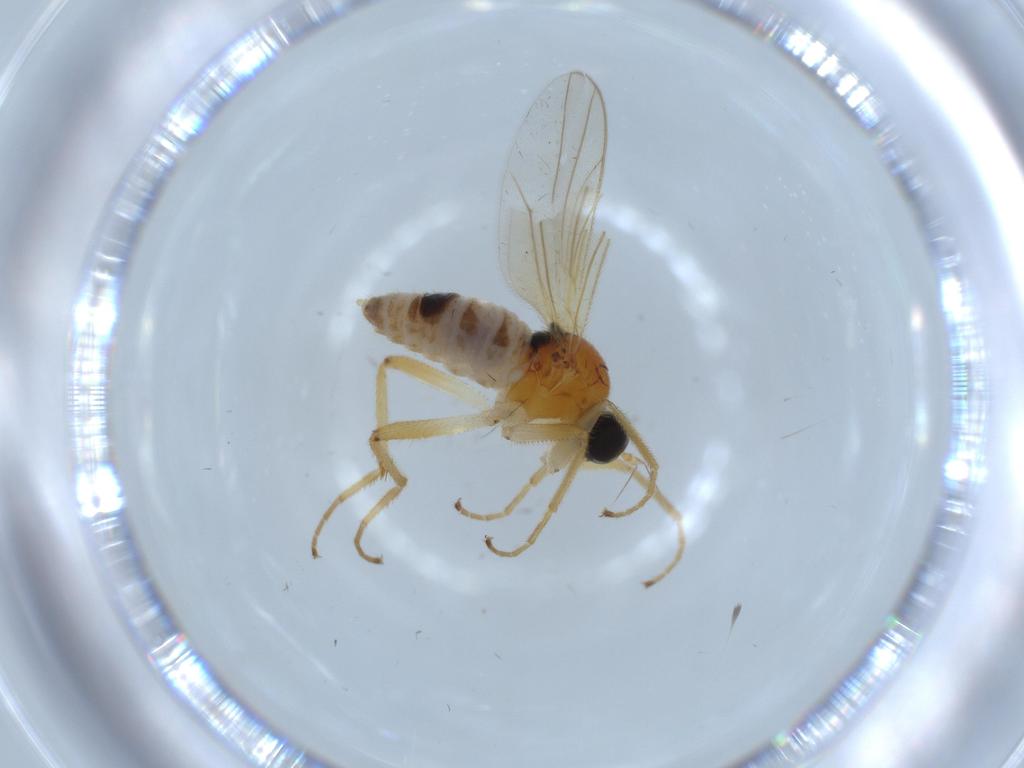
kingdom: Animalia
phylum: Arthropoda
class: Insecta
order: Diptera
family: Hybotidae
